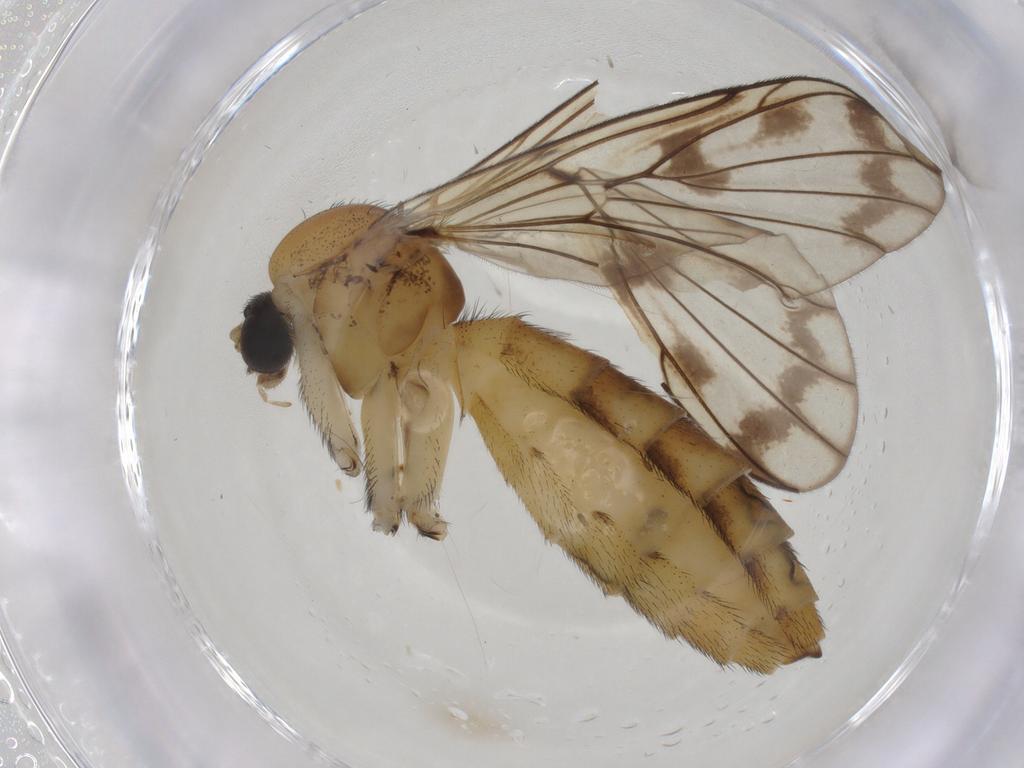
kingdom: Animalia
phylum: Arthropoda
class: Insecta
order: Diptera
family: Keroplatidae
